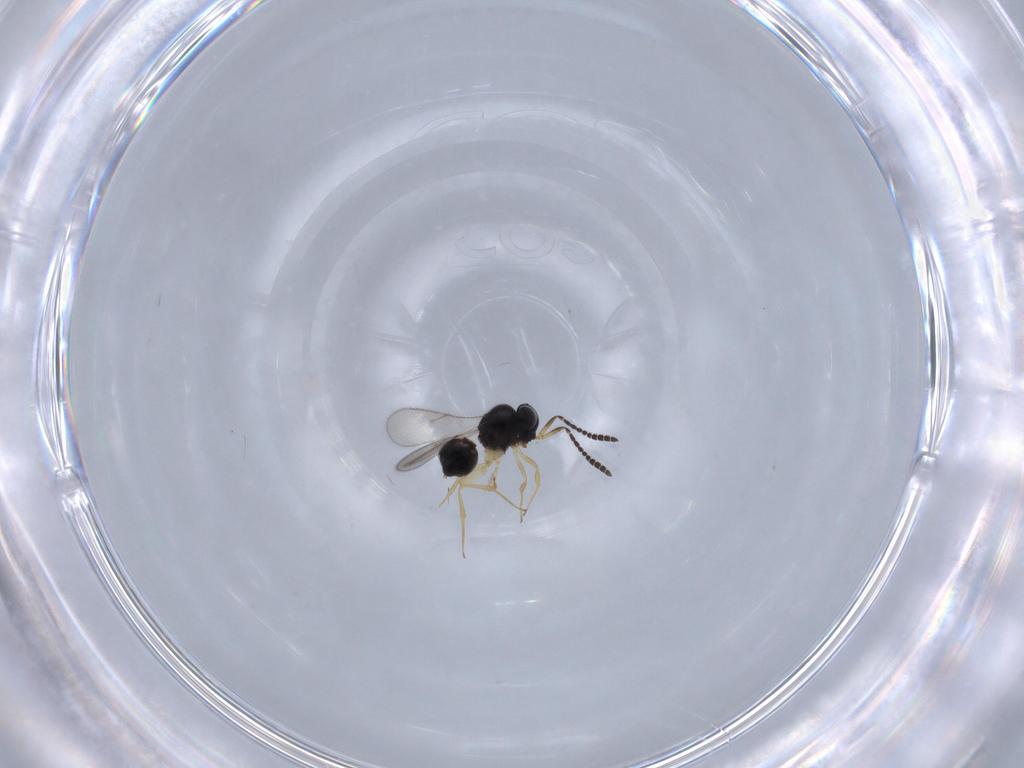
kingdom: Animalia
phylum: Arthropoda
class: Insecta
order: Hymenoptera
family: Scelionidae
